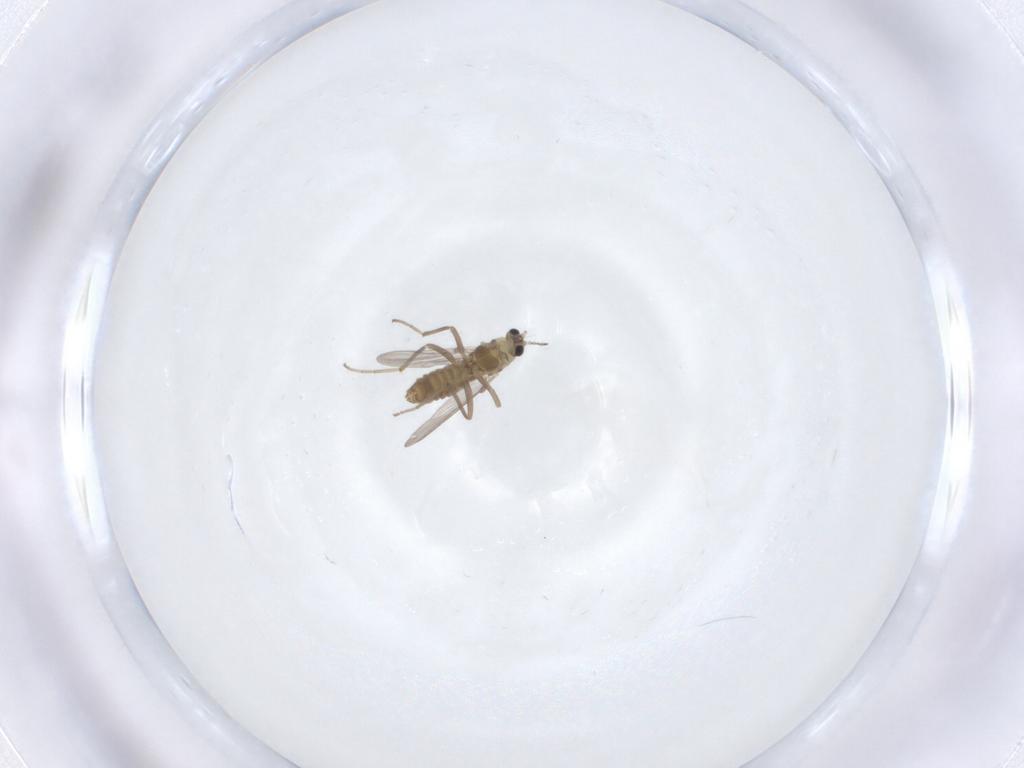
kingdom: Animalia
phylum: Arthropoda
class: Insecta
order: Diptera
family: Chironomidae
